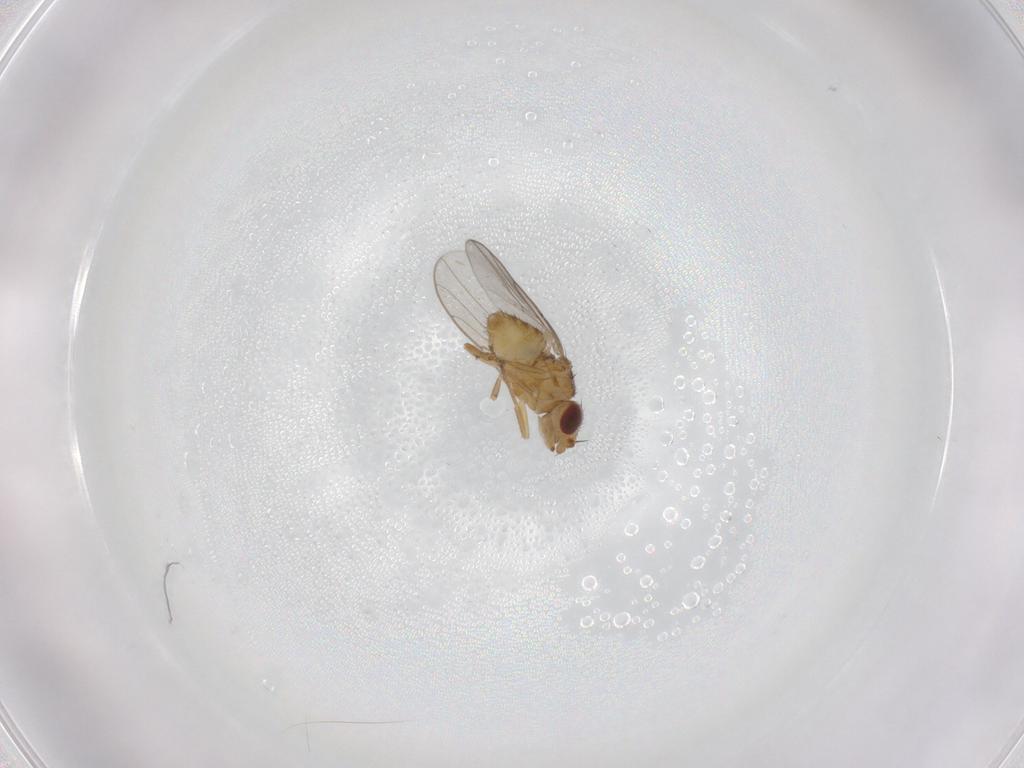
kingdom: Animalia
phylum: Arthropoda
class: Insecta
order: Diptera
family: Chloropidae
